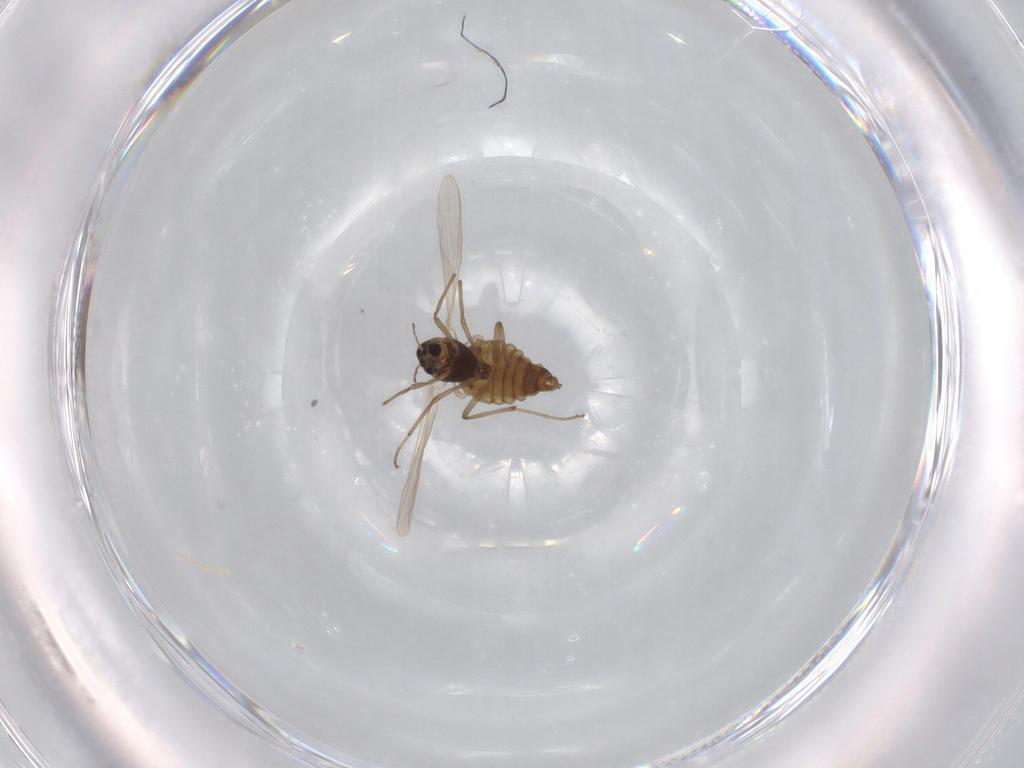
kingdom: Animalia
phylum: Arthropoda
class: Insecta
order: Diptera
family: Chironomidae
